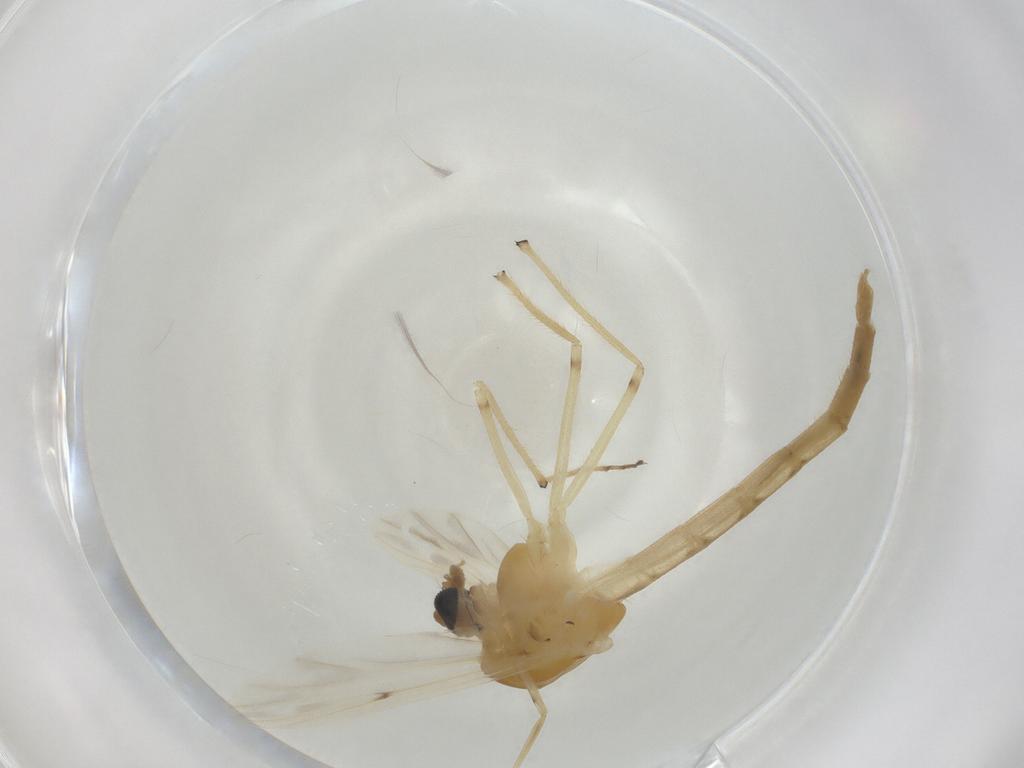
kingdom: Animalia
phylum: Arthropoda
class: Insecta
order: Diptera
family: Chironomidae
